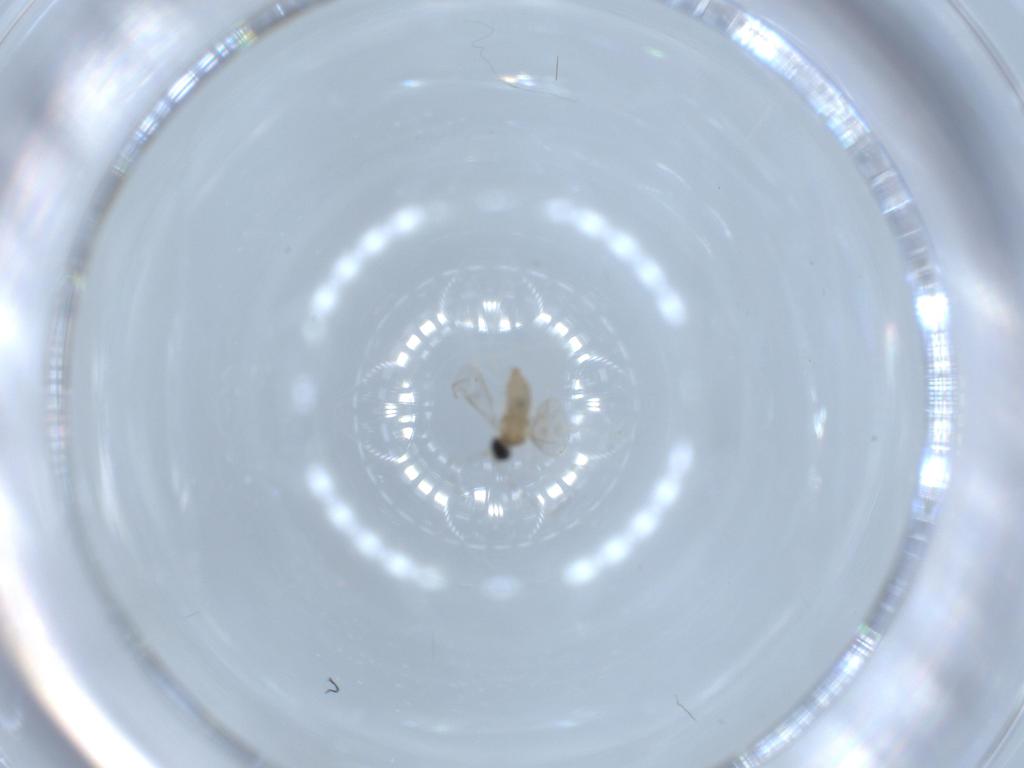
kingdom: Animalia
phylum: Arthropoda
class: Insecta
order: Diptera
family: Cecidomyiidae
